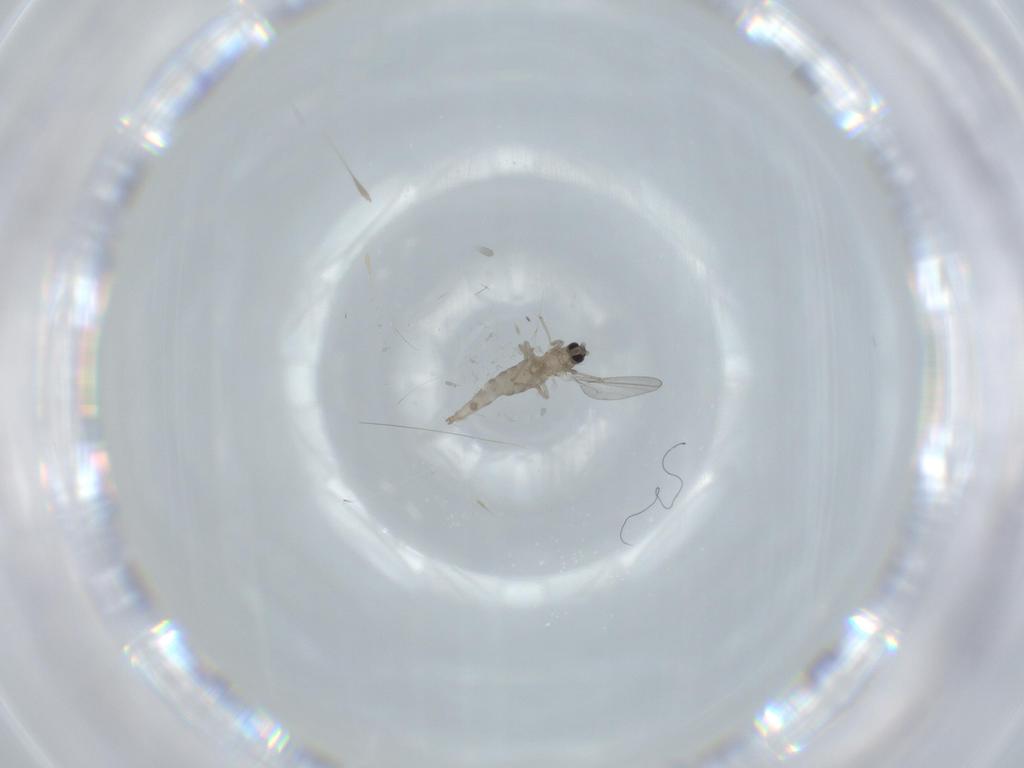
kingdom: Animalia
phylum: Arthropoda
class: Insecta
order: Diptera
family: Cecidomyiidae
